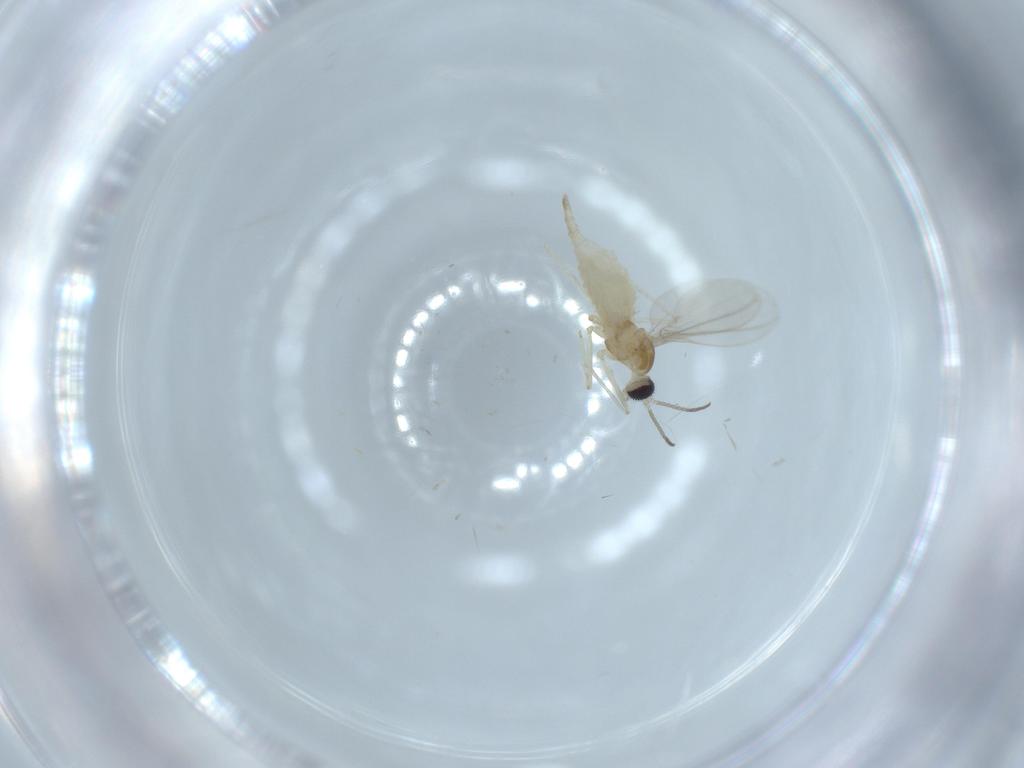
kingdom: Animalia
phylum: Arthropoda
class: Insecta
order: Diptera
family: Cecidomyiidae
